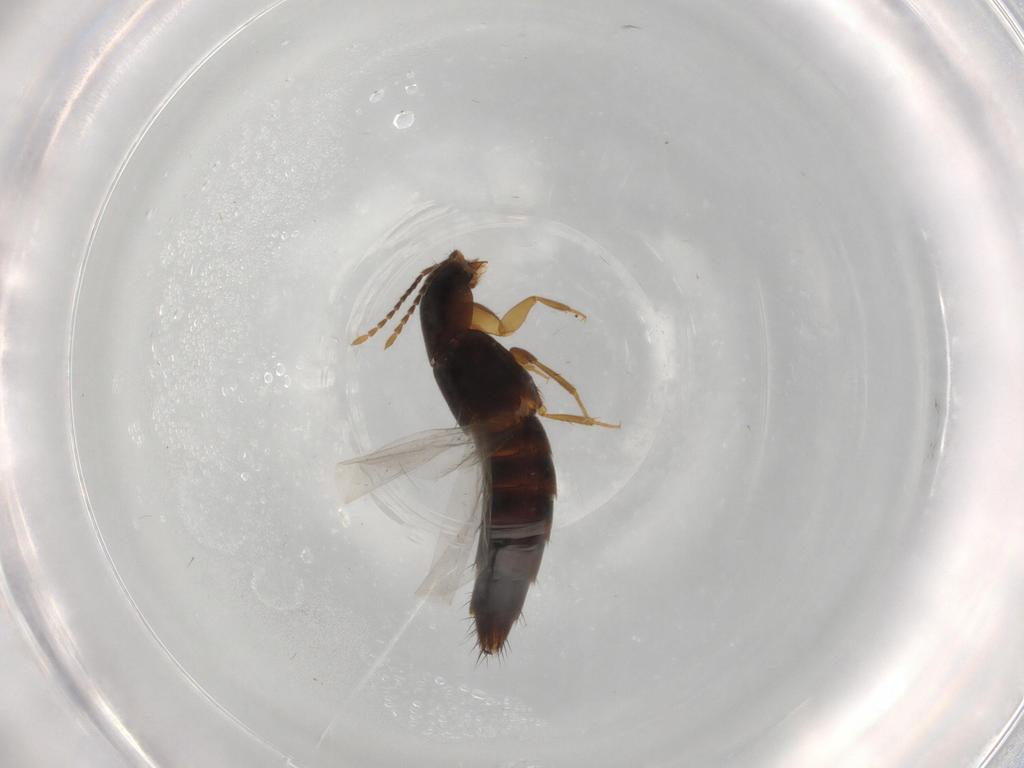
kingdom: Animalia
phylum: Arthropoda
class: Insecta
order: Coleoptera
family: Staphylinidae
